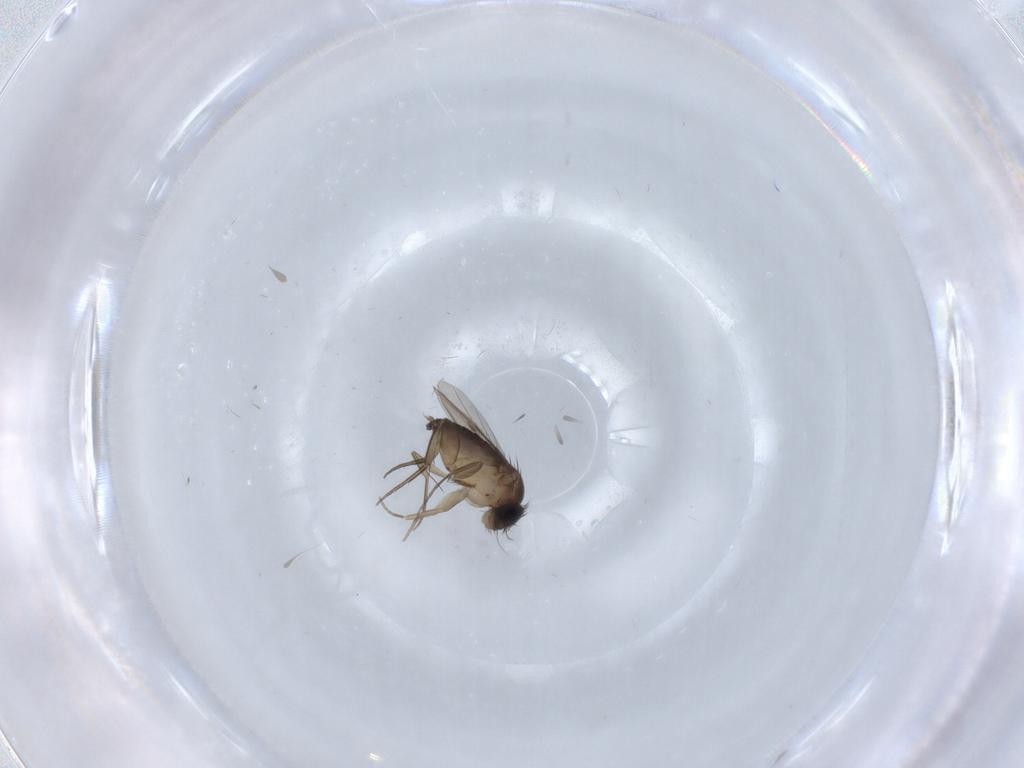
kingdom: Animalia
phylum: Arthropoda
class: Insecta
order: Diptera
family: Phoridae
